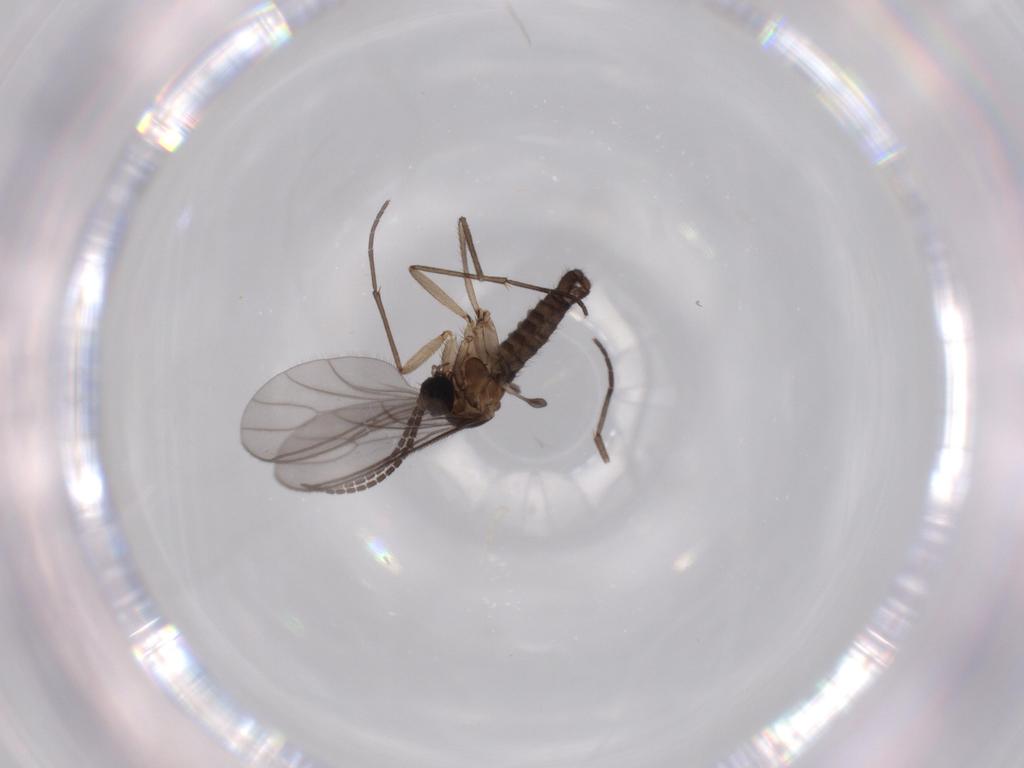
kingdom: Animalia
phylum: Arthropoda
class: Insecta
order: Diptera
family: Sciaridae
